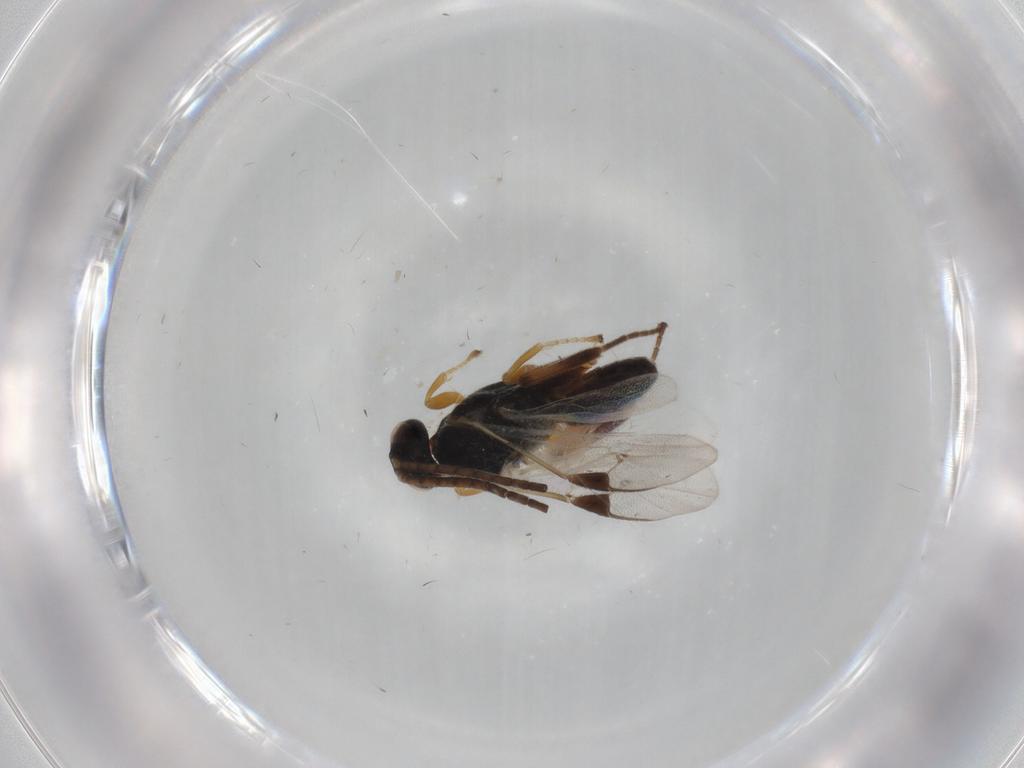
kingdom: Animalia
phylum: Arthropoda
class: Insecta
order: Hymenoptera
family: Braconidae
